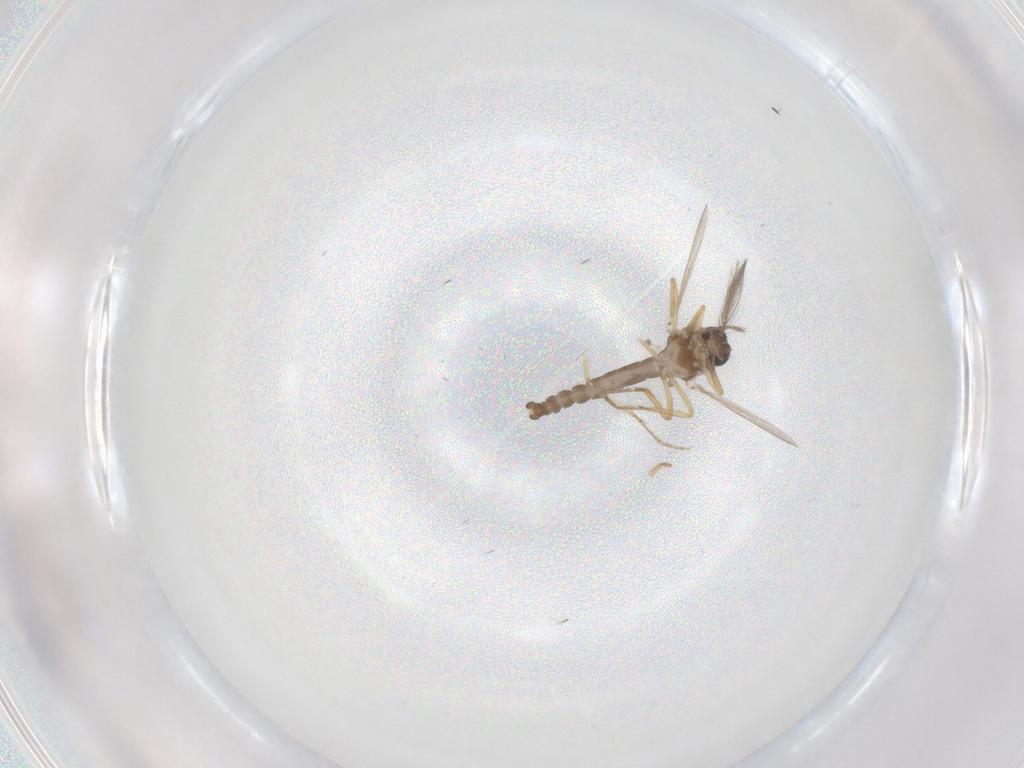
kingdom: Animalia
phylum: Arthropoda
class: Insecta
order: Diptera
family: Ceratopogonidae
